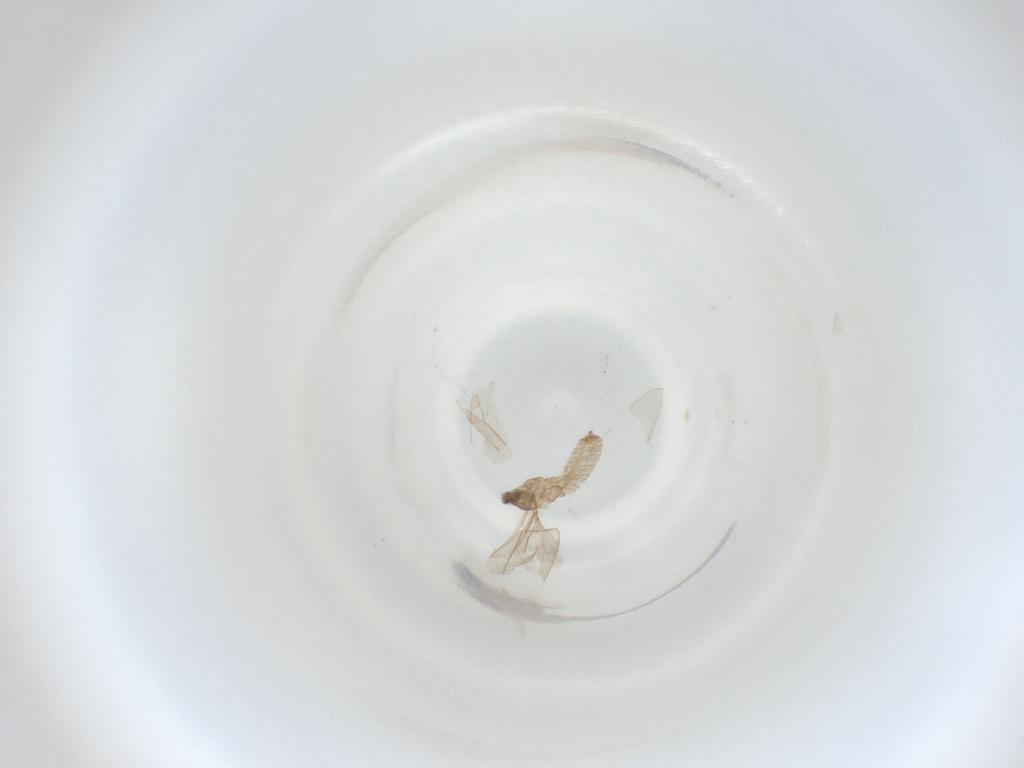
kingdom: Animalia
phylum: Arthropoda
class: Insecta
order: Diptera
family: Cecidomyiidae
